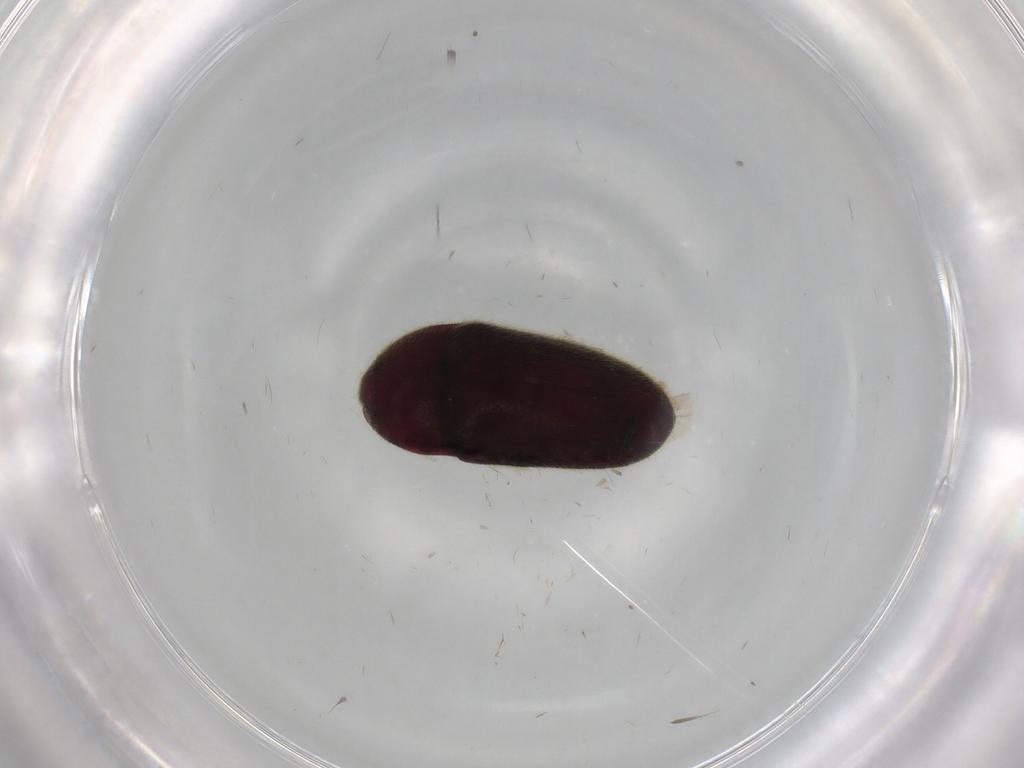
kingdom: Animalia
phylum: Arthropoda
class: Insecta
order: Coleoptera
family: Throscidae
